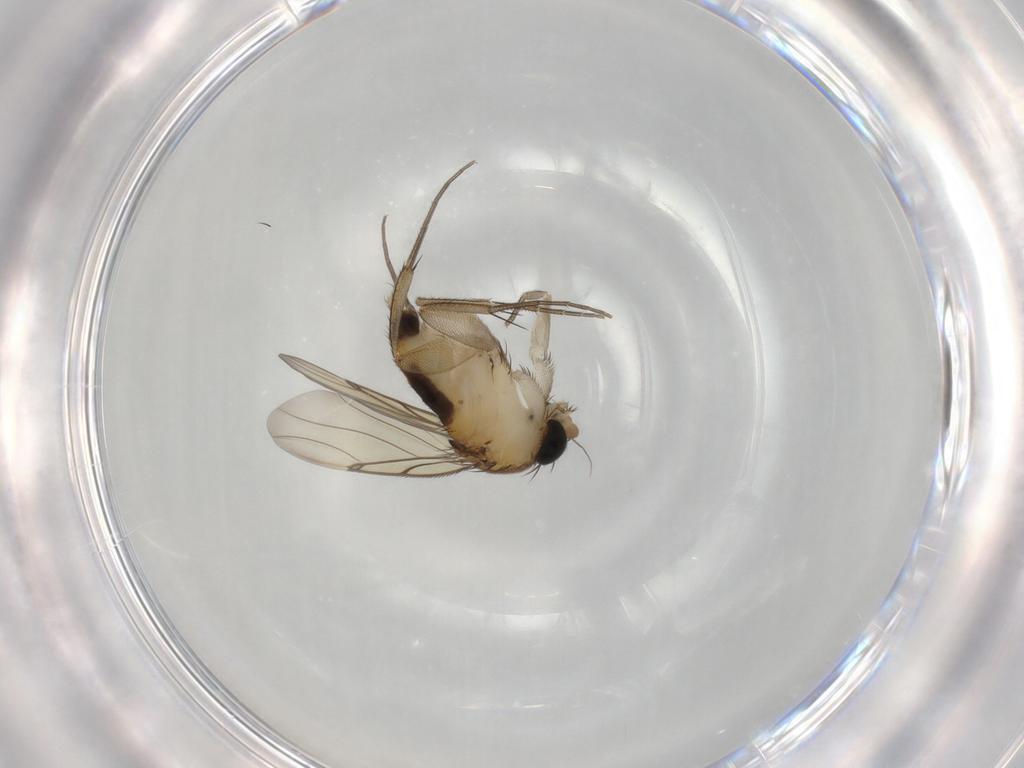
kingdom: Animalia
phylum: Arthropoda
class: Insecta
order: Diptera
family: Phoridae
